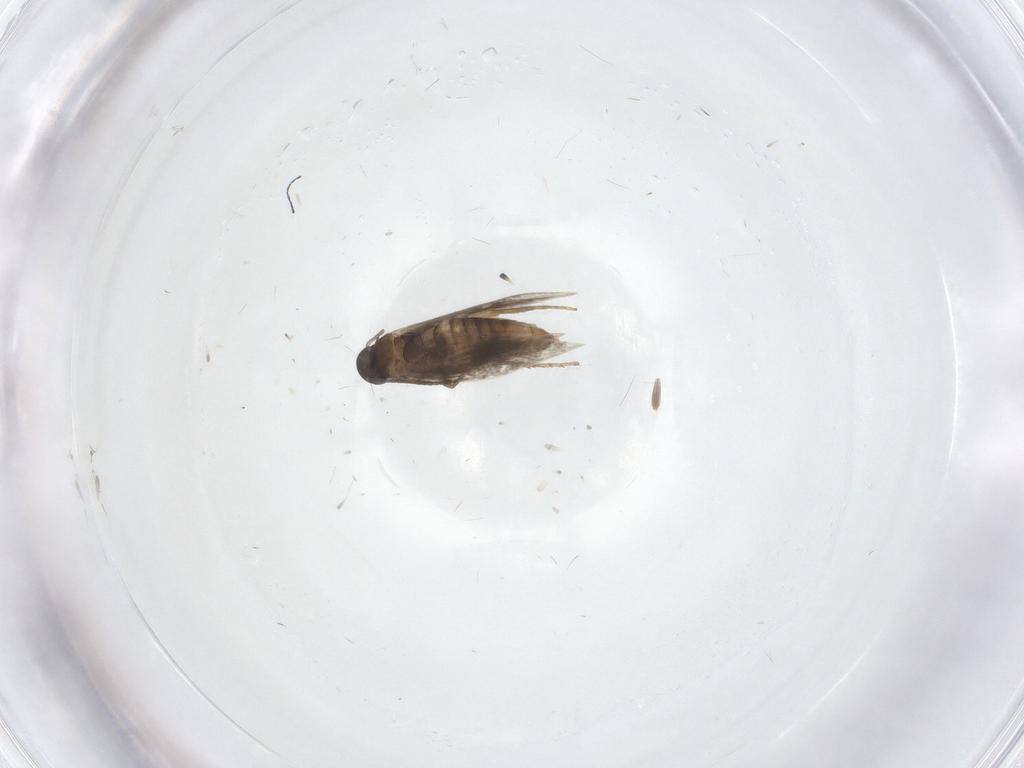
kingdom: Animalia
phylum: Arthropoda
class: Insecta
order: Lepidoptera
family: Heliozelidae
